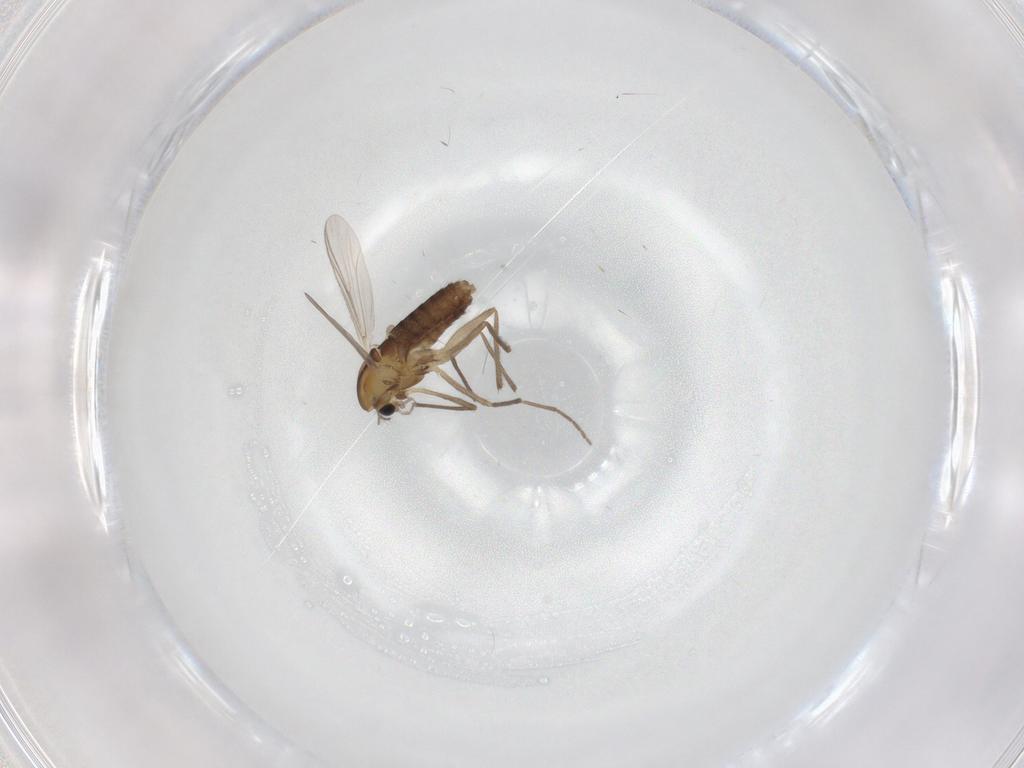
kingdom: Animalia
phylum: Arthropoda
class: Insecta
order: Diptera
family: Chironomidae
